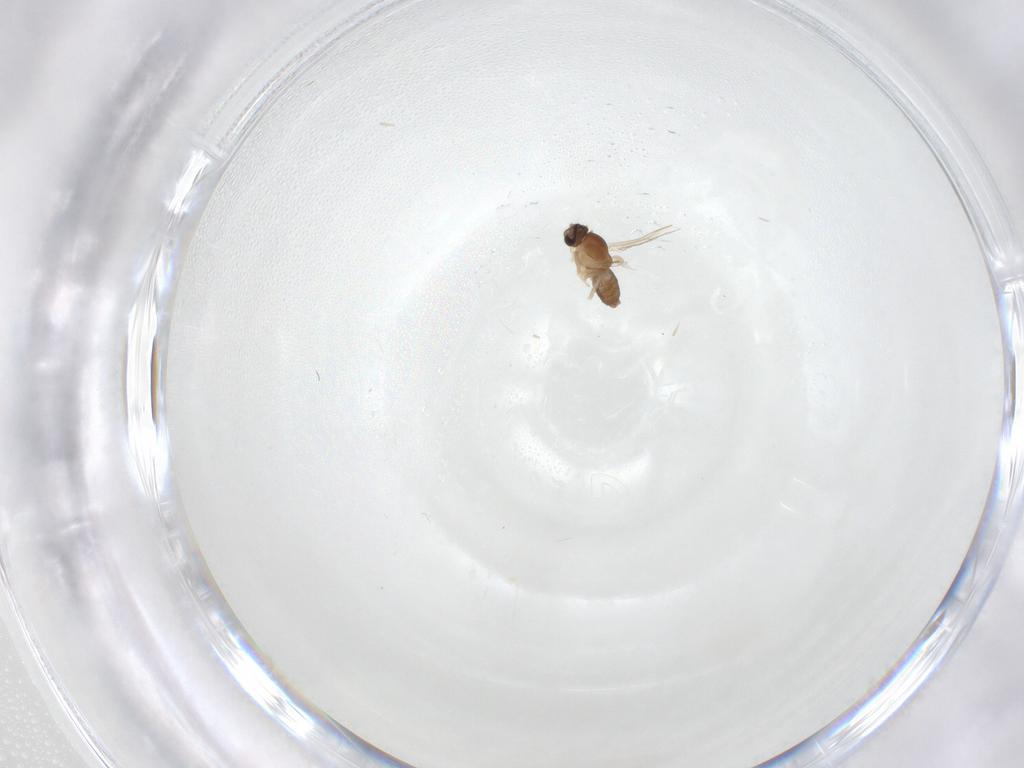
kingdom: Animalia
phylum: Arthropoda
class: Insecta
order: Diptera
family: Cecidomyiidae
